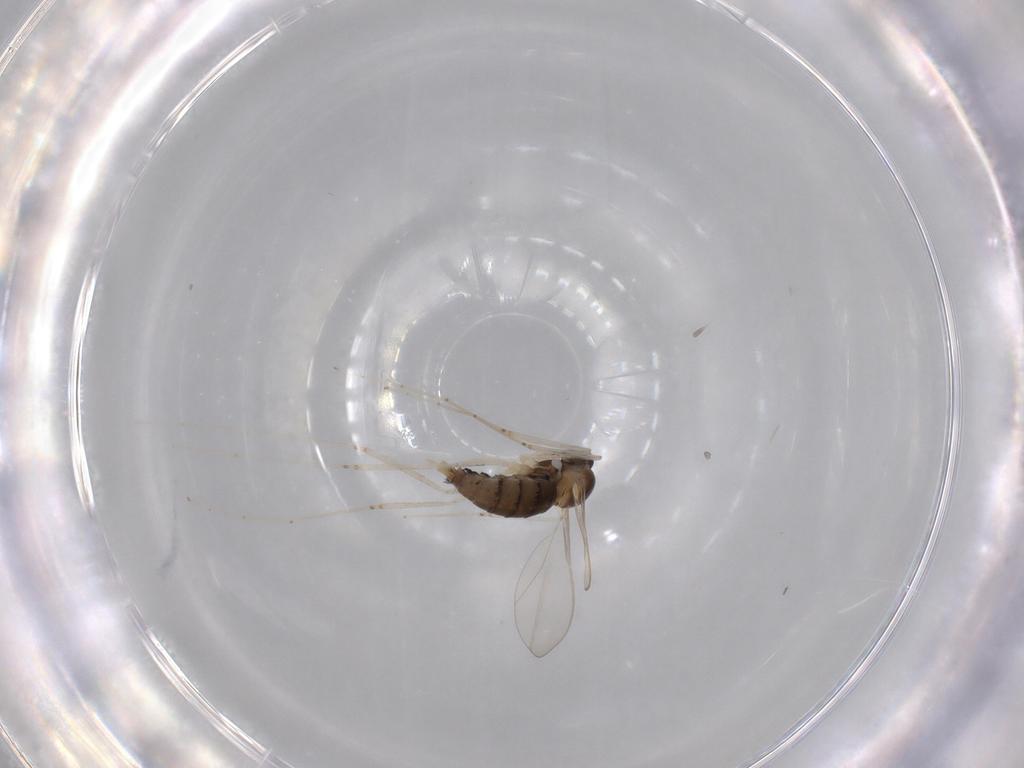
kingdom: Animalia
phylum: Arthropoda
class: Insecta
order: Diptera
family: Cecidomyiidae
